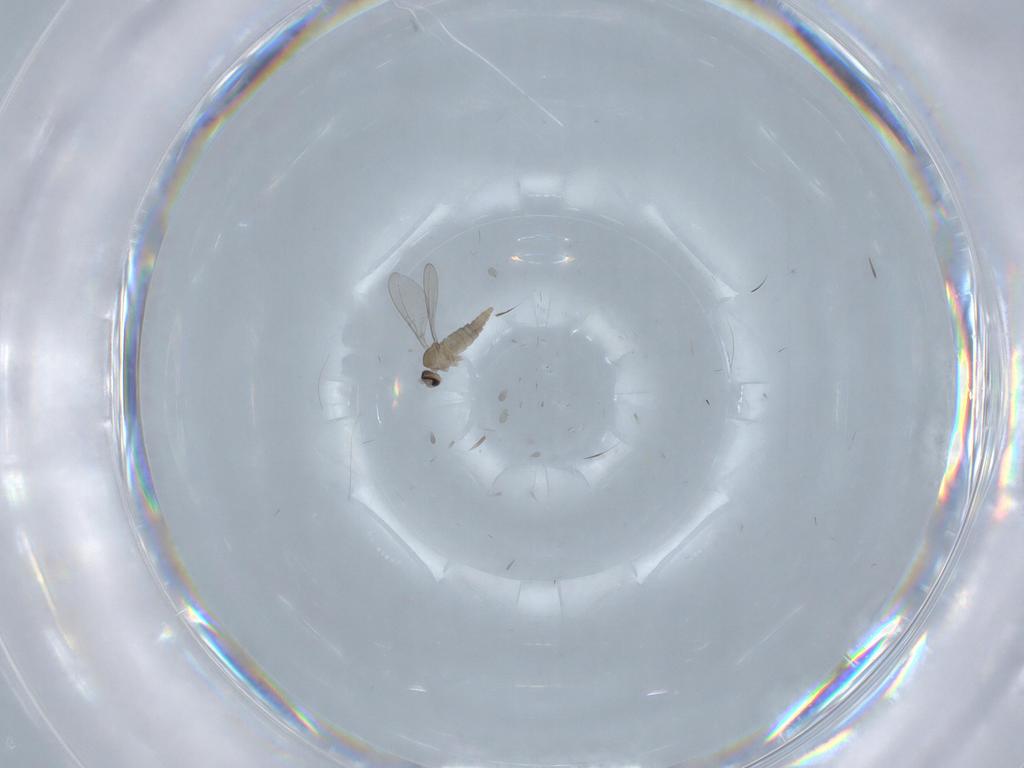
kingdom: Animalia
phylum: Arthropoda
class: Insecta
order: Diptera
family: Cecidomyiidae
